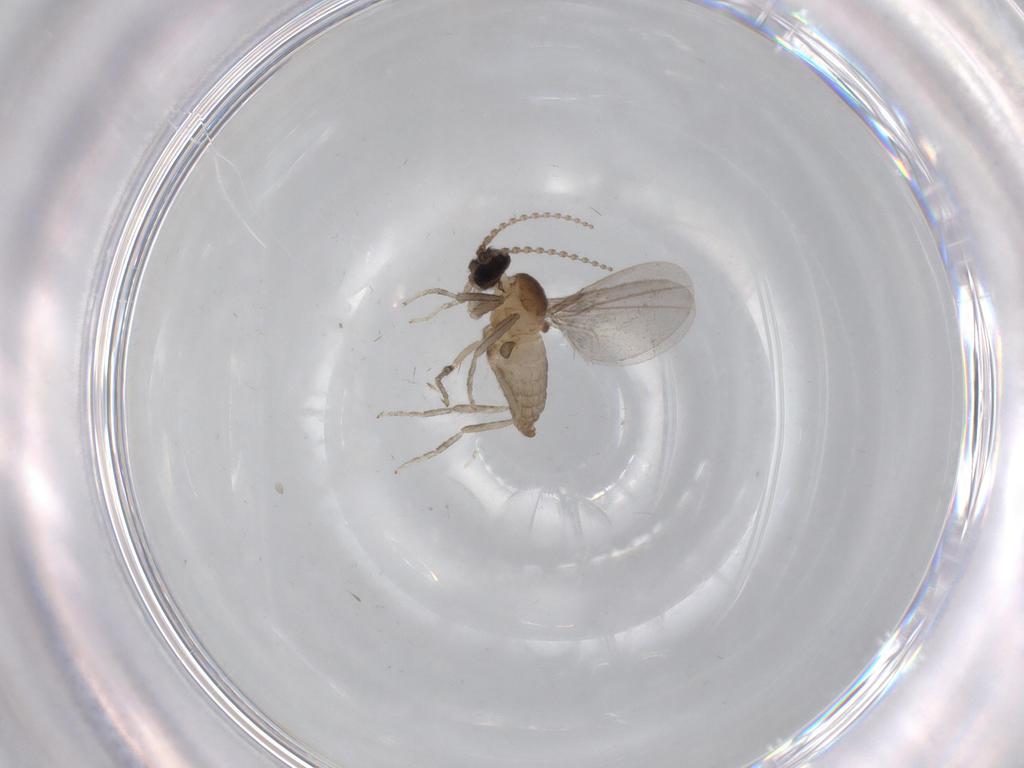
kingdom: Animalia
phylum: Arthropoda
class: Insecta
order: Diptera
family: Cecidomyiidae
